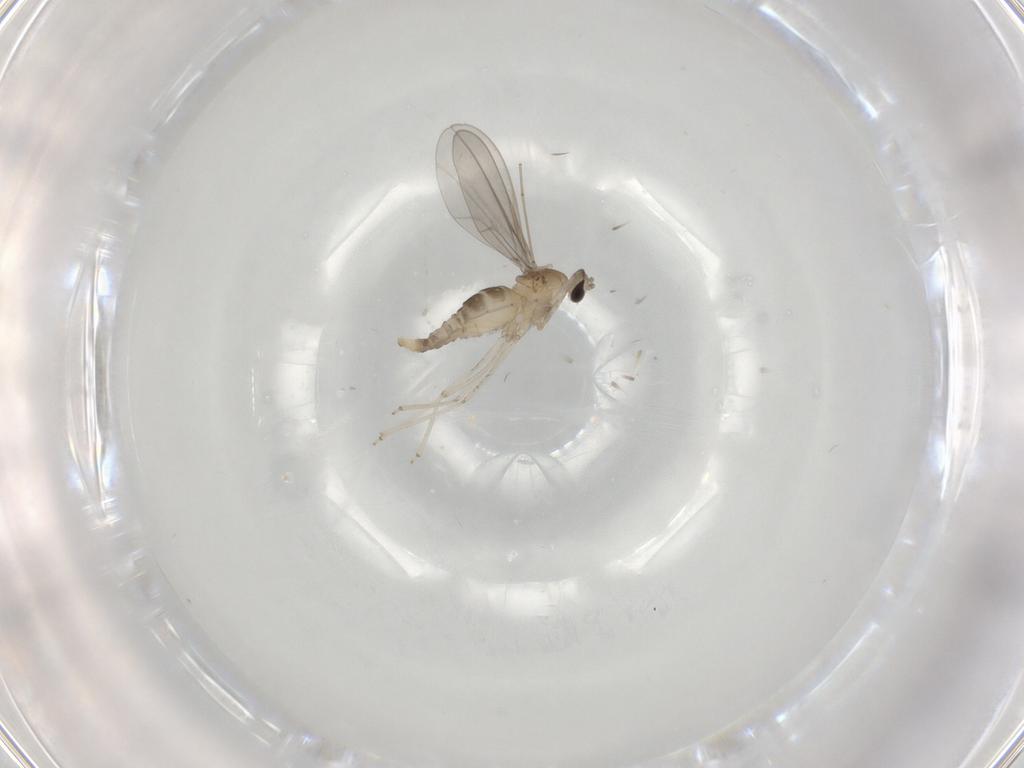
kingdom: Animalia
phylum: Arthropoda
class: Insecta
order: Diptera
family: Cecidomyiidae
